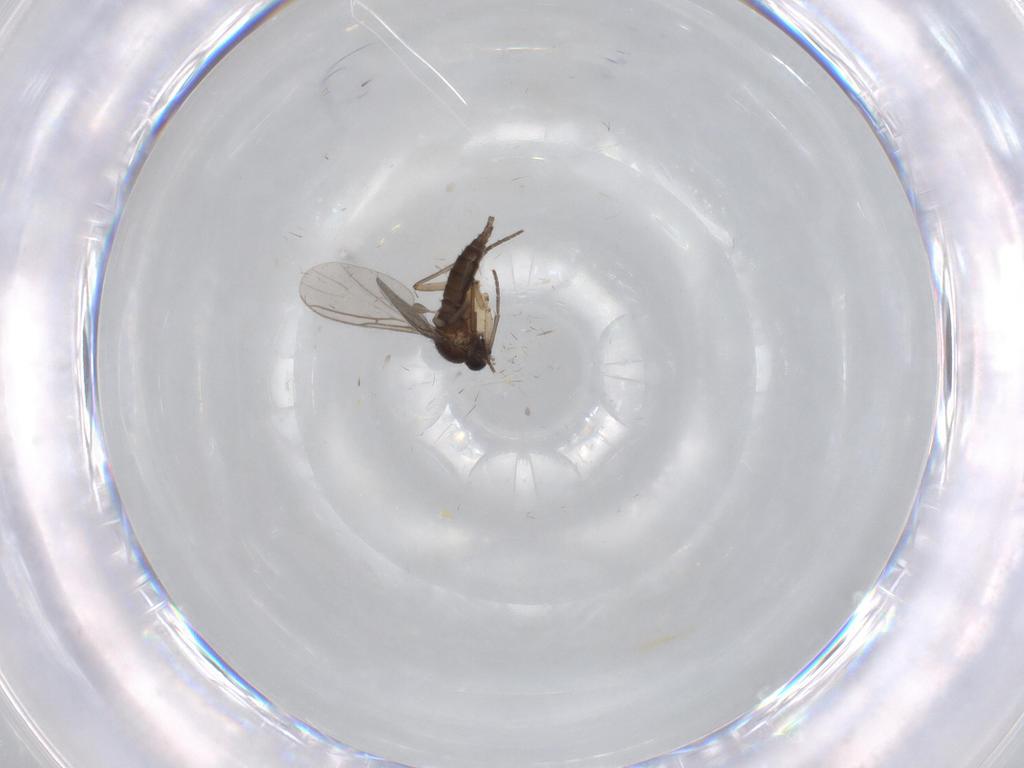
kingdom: Animalia
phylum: Arthropoda
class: Insecta
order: Diptera
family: Sciaridae
